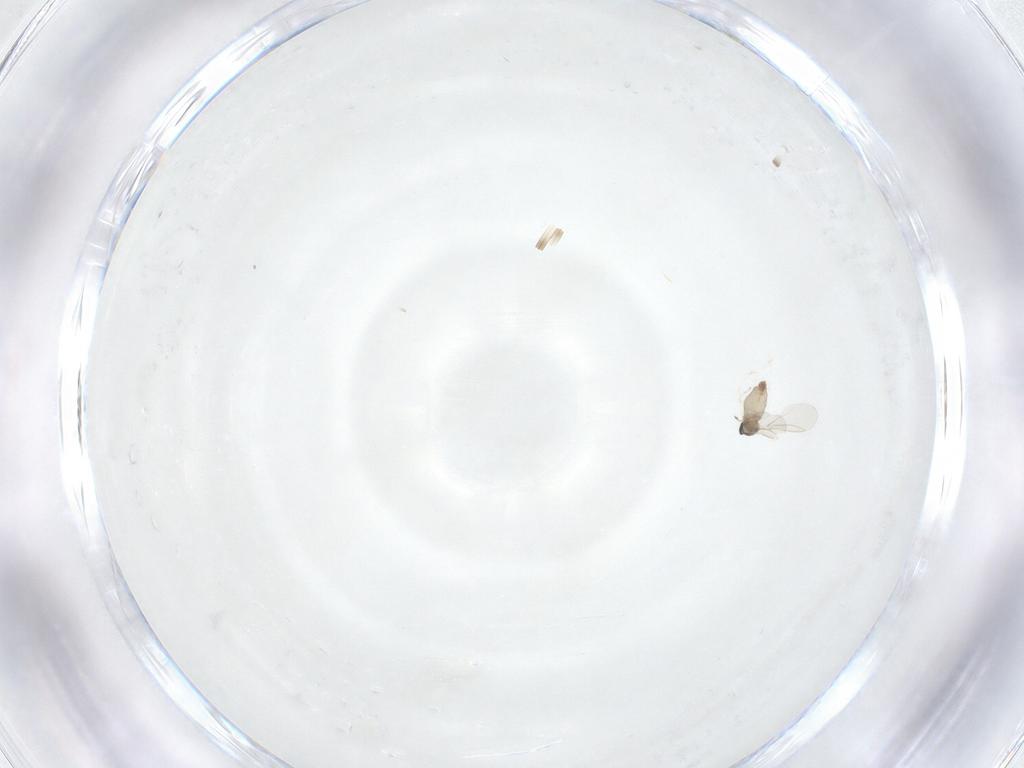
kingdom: Animalia
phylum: Arthropoda
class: Insecta
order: Diptera
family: Cecidomyiidae
